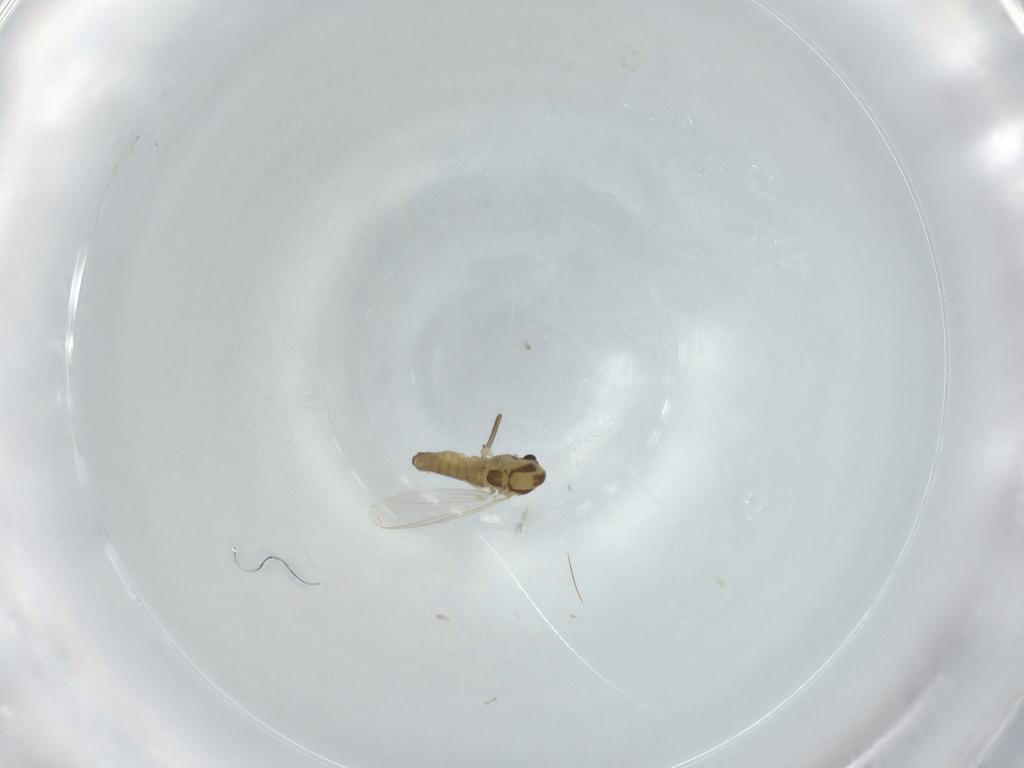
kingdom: Animalia
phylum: Arthropoda
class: Insecta
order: Diptera
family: Chironomidae
